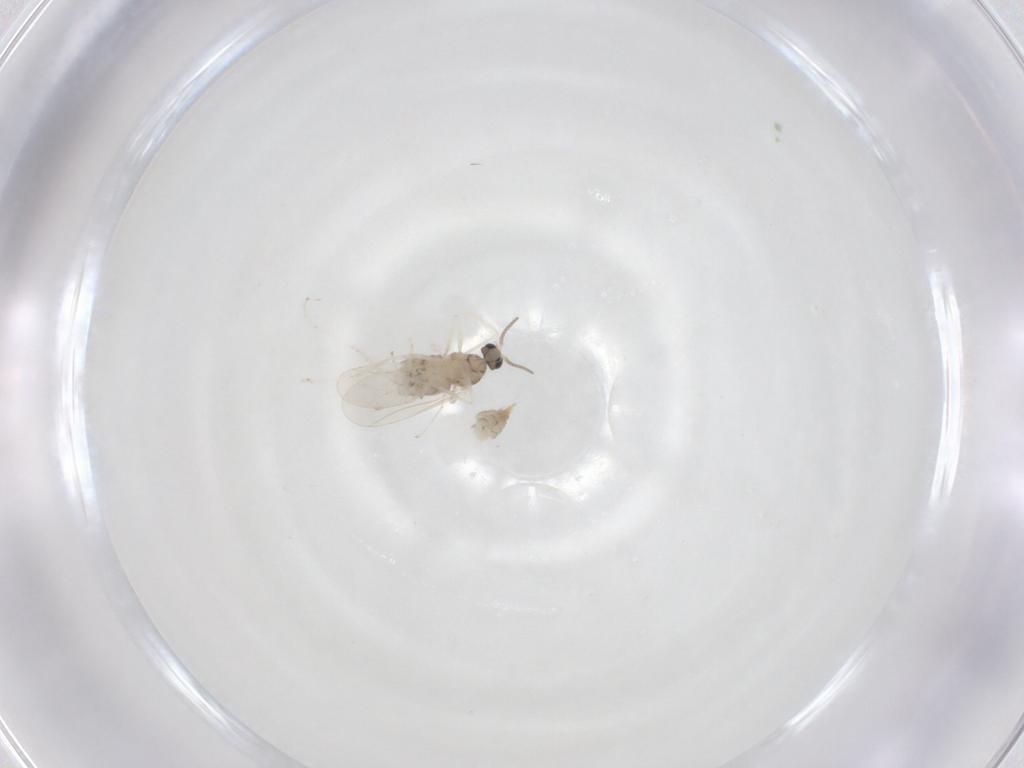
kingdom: Animalia
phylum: Arthropoda
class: Insecta
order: Diptera
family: Cecidomyiidae
